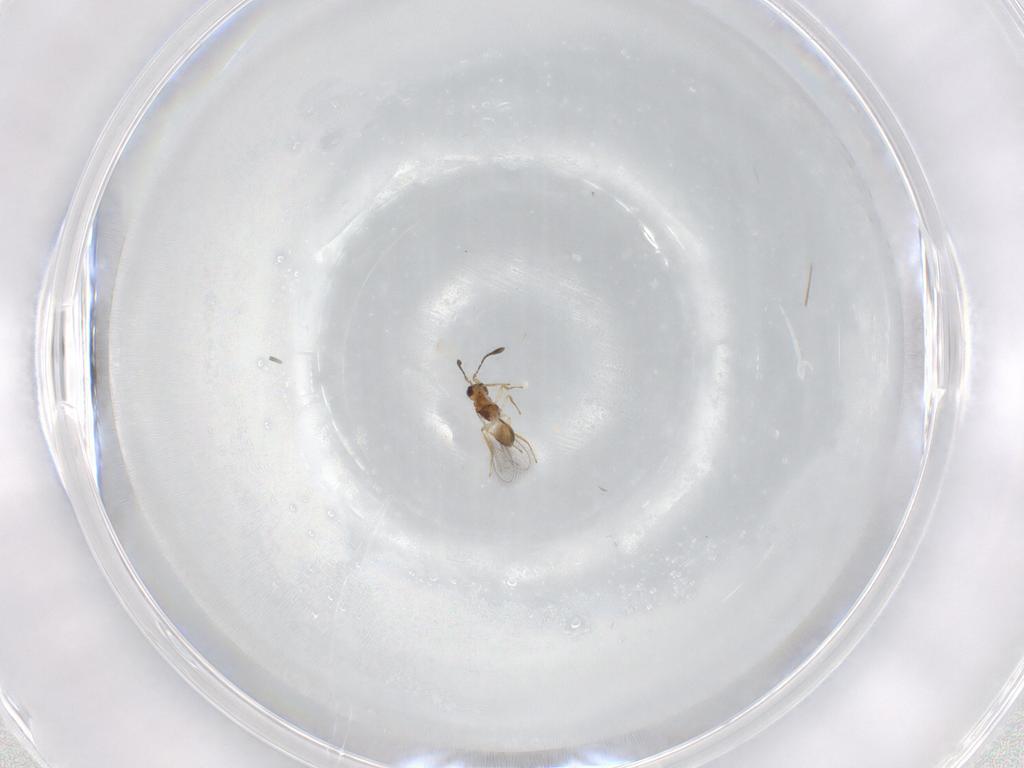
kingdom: Animalia
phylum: Arthropoda
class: Insecta
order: Hymenoptera
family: Mymaridae
